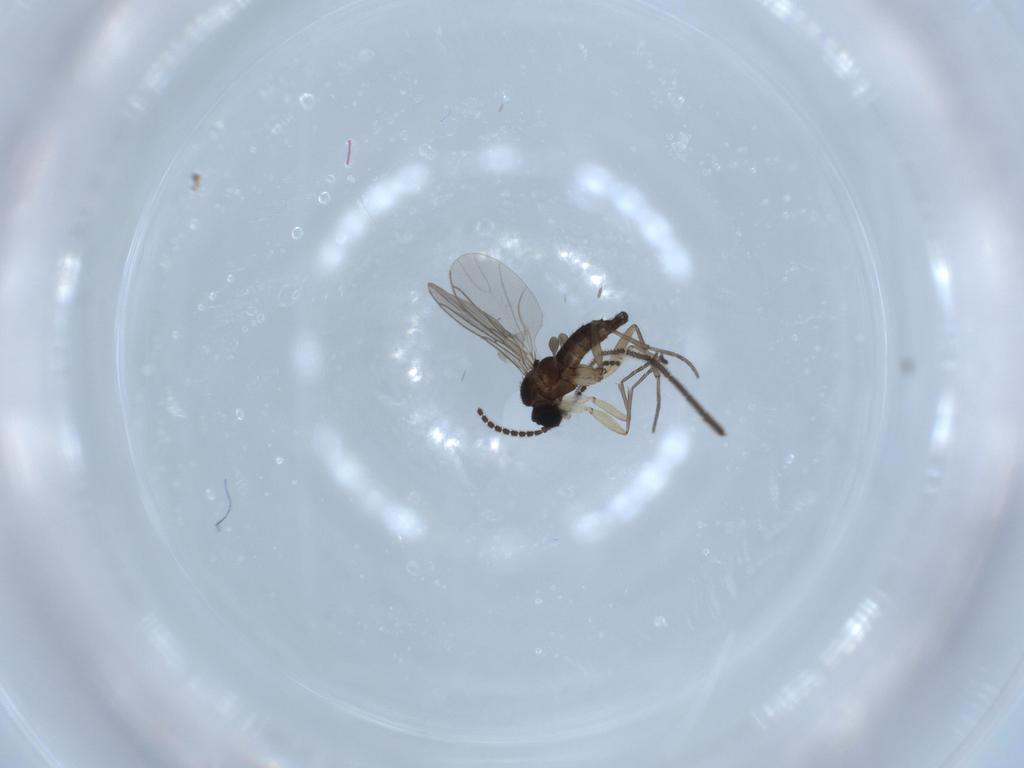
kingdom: Animalia
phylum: Arthropoda
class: Insecta
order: Diptera
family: Sciaridae
